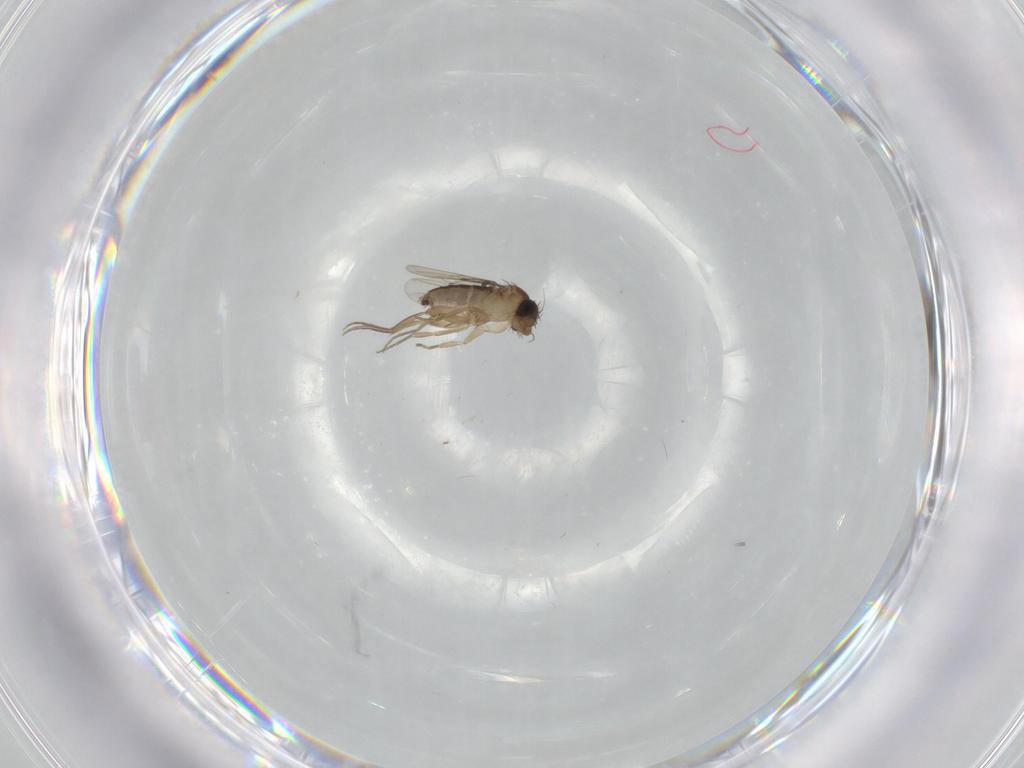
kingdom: Animalia
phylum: Arthropoda
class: Insecta
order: Diptera
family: Phoridae
